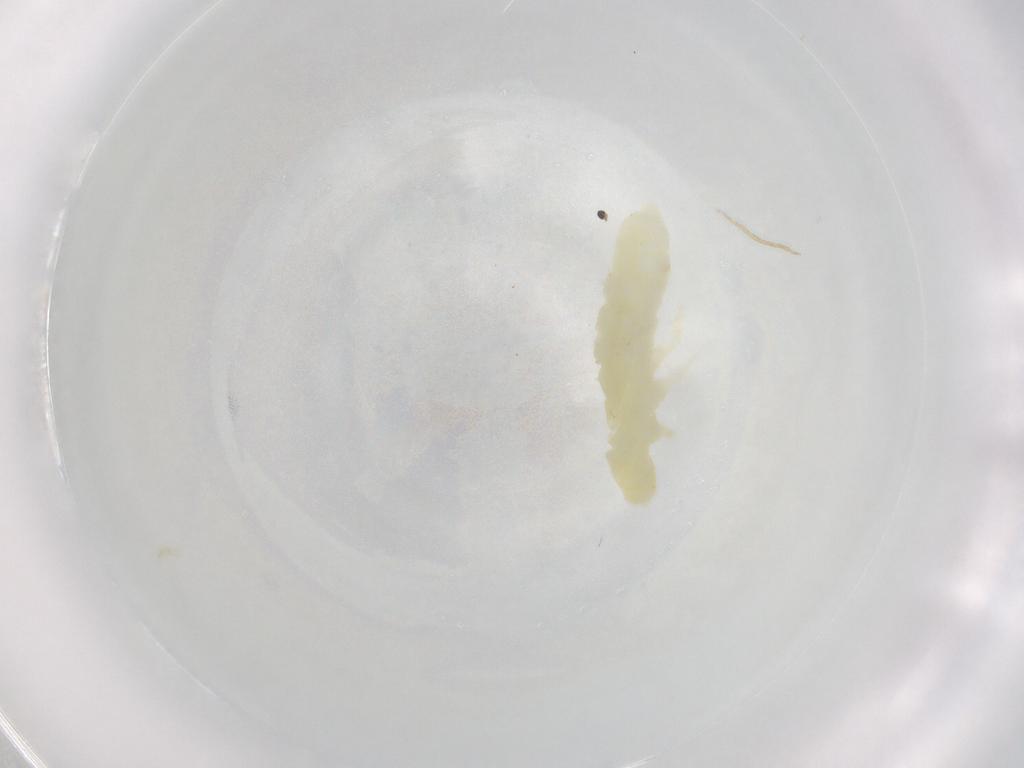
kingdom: Animalia
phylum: Arthropoda
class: Collembola
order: Poduromorpha
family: Onychiuridae
